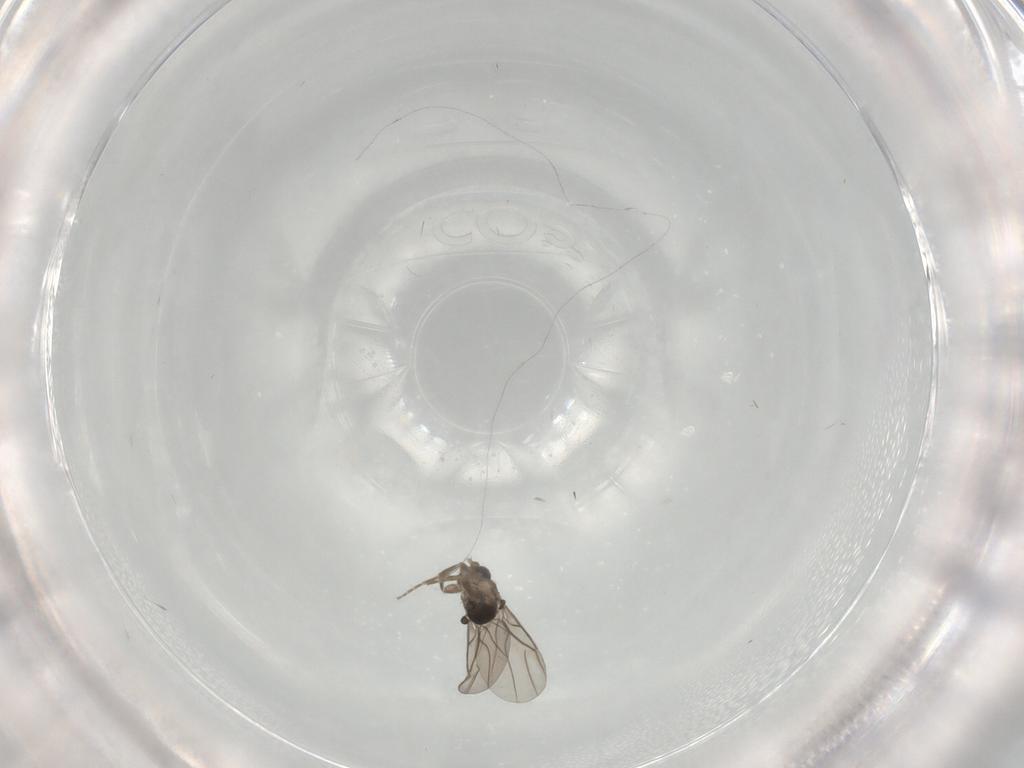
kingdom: Animalia
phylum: Arthropoda
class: Insecta
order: Diptera
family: Phoridae
